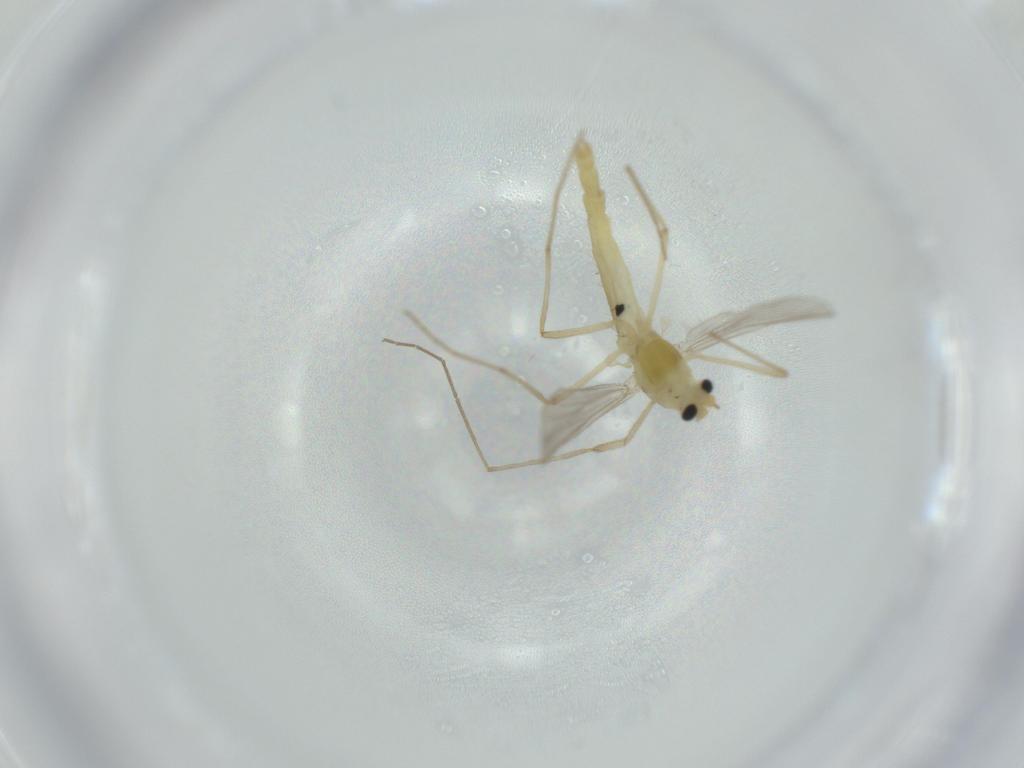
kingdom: Animalia
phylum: Arthropoda
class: Insecta
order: Diptera
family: Chironomidae
